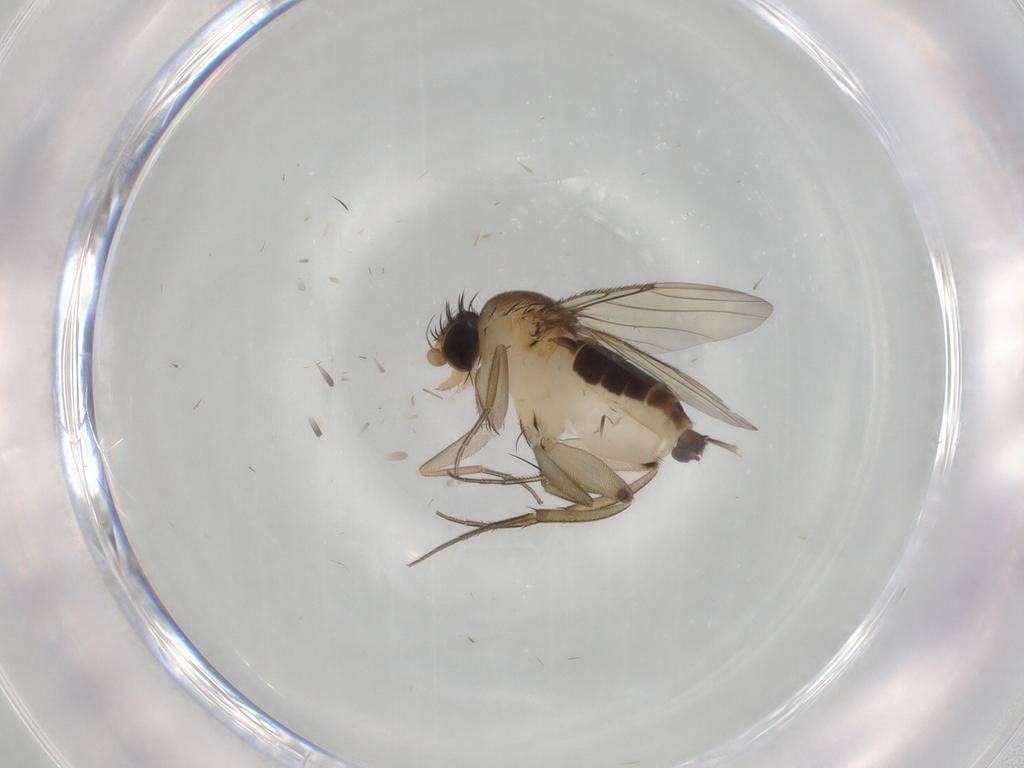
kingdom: Animalia
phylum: Arthropoda
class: Insecta
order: Diptera
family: Phoridae
